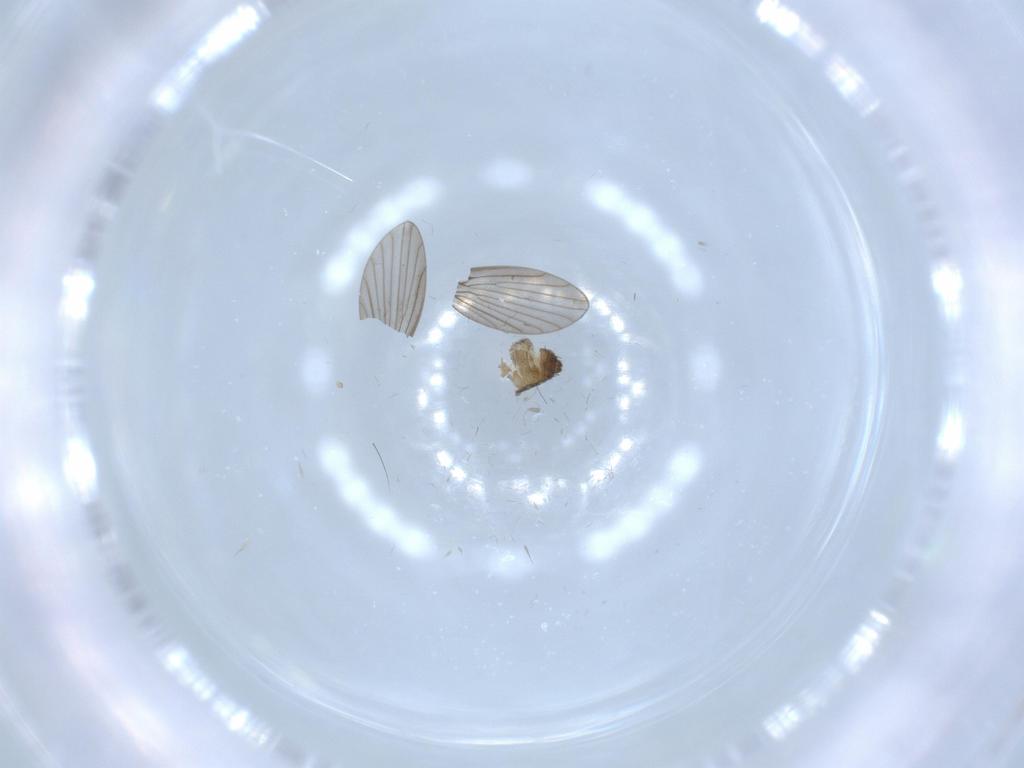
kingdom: Animalia
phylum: Arthropoda
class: Insecta
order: Diptera
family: Psychodidae
